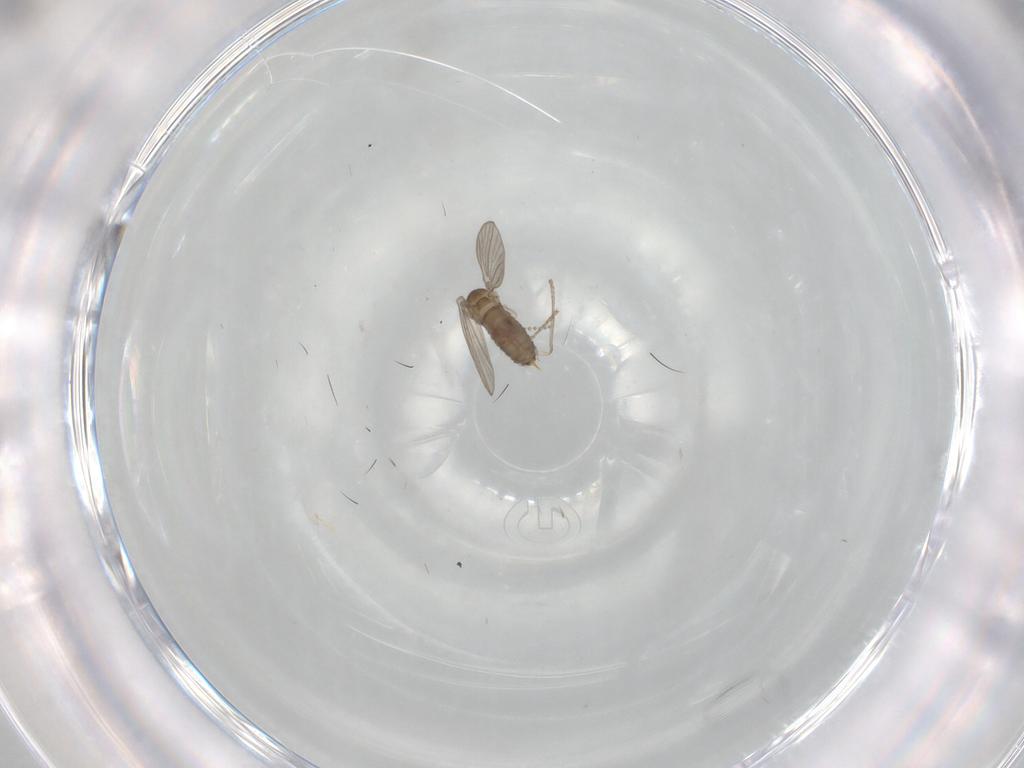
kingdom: Animalia
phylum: Arthropoda
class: Insecta
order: Diptera
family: Psychodidae
